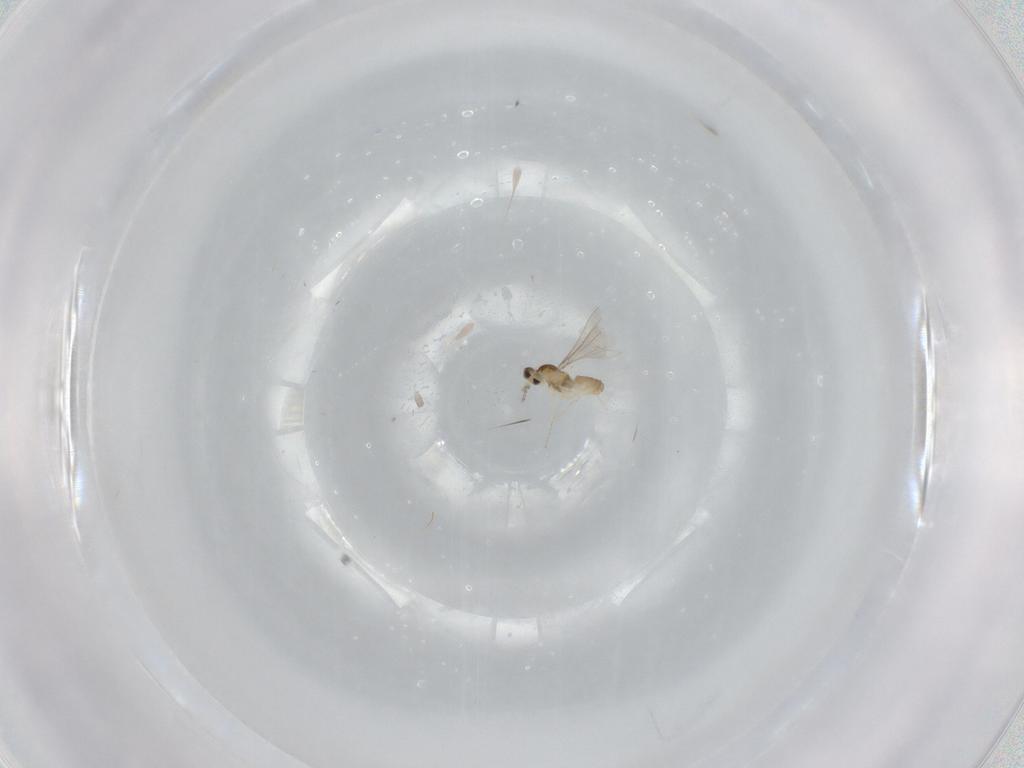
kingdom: Animalia
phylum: Arthropoda
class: Insecta
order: Diptera
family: Cecidomyiidae
